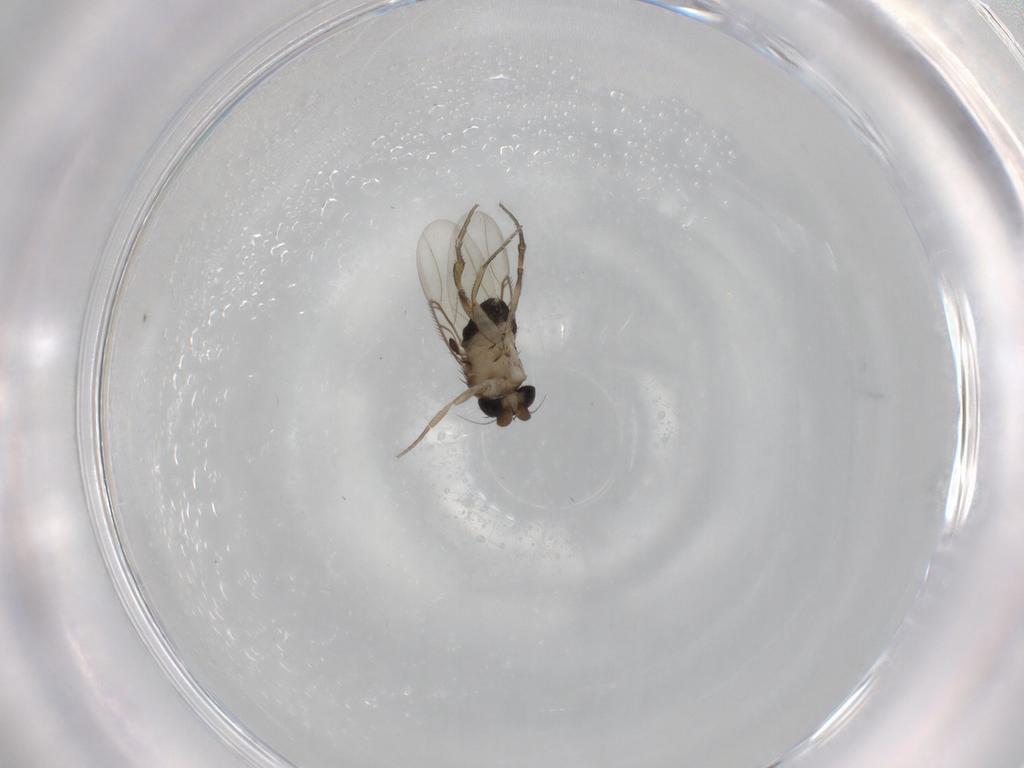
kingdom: Animalia
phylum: Arthropoda
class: Insecta
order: Diptera
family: Phoridae
